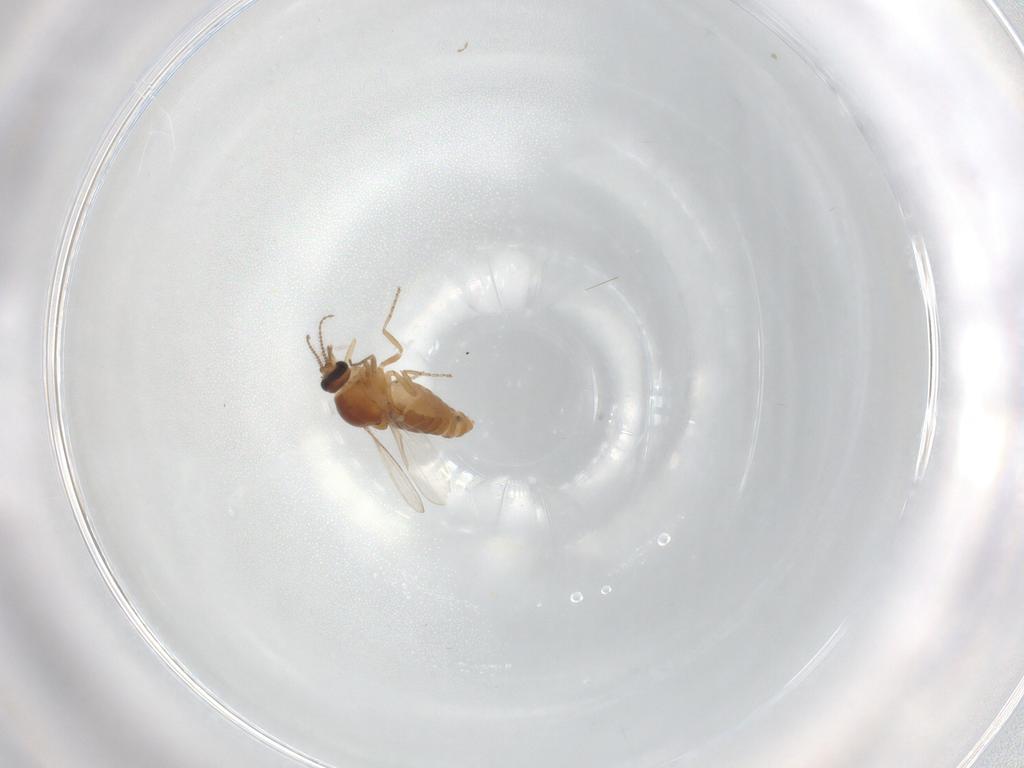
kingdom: Animalia
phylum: Arthropoda
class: Insecta
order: Diptera
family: Ceratopogonidae
